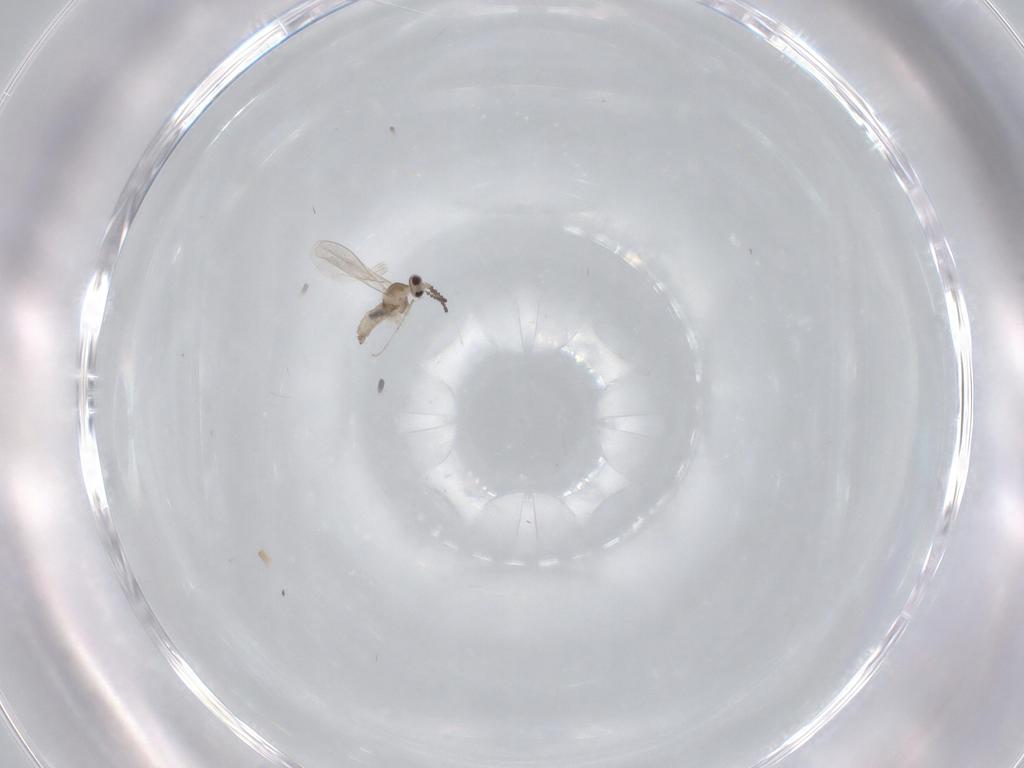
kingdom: Animalia
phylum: Arthropoda
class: Insecta
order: Diptera
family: Cecidomyiidae
